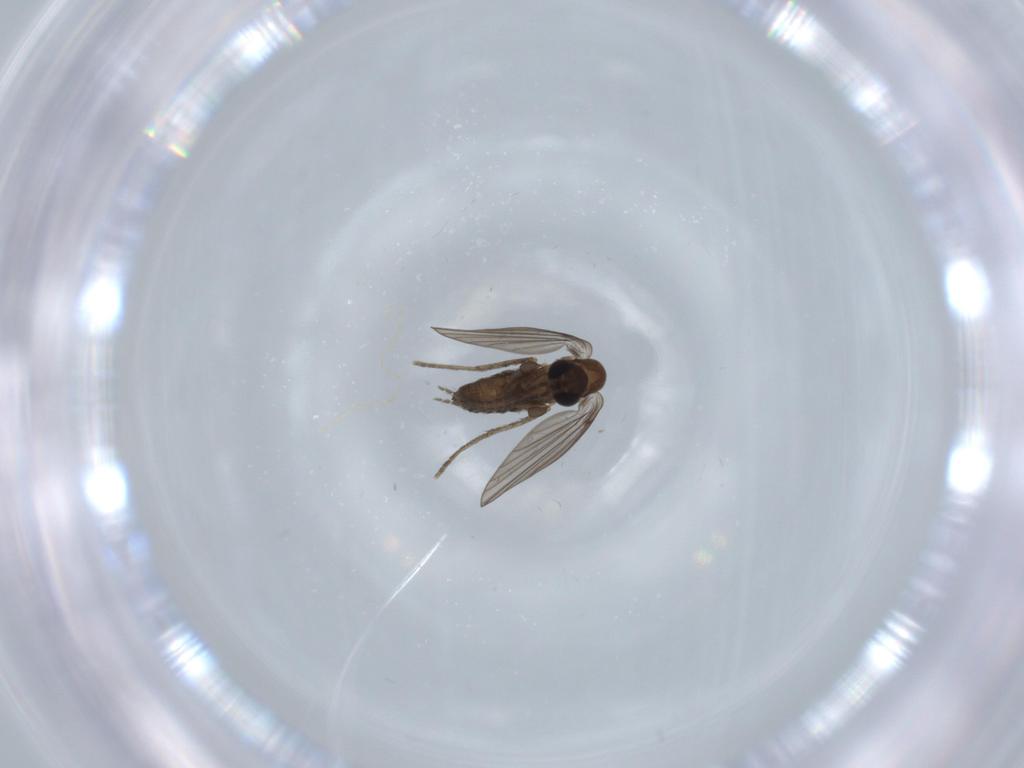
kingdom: Animalia
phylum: Arthropoda
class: Insecta
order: Diptera
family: Psychodidae
